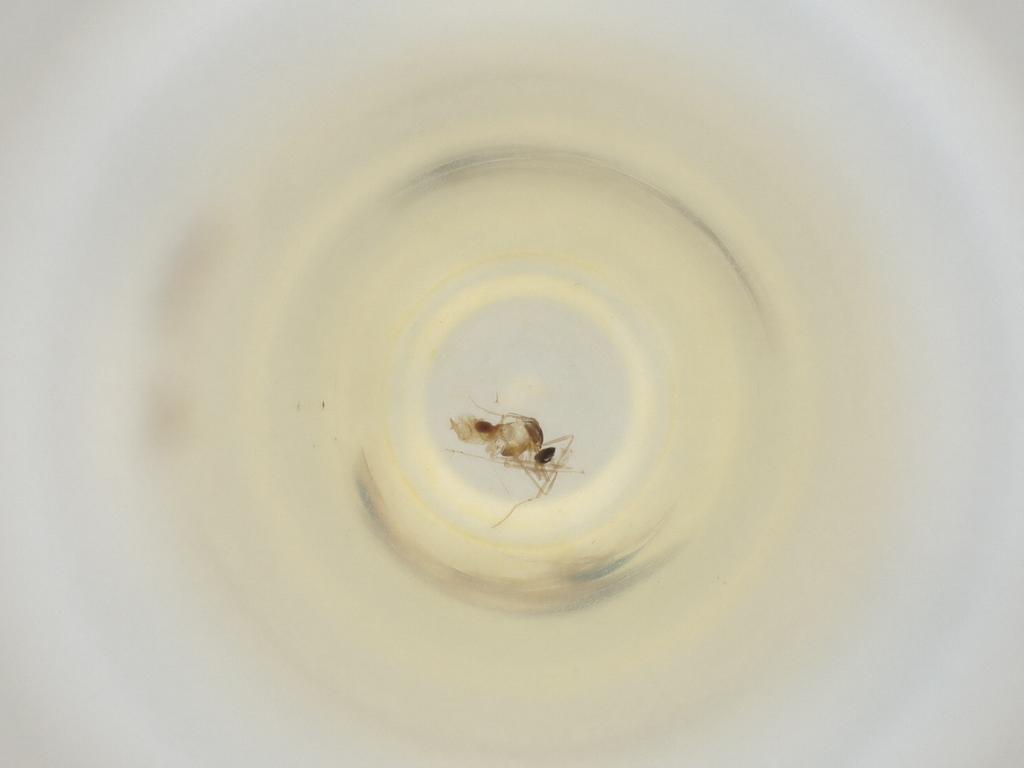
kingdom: Animalia
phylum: Arthropoda
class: Insecta
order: Diptera
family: Cecidomyiidae
